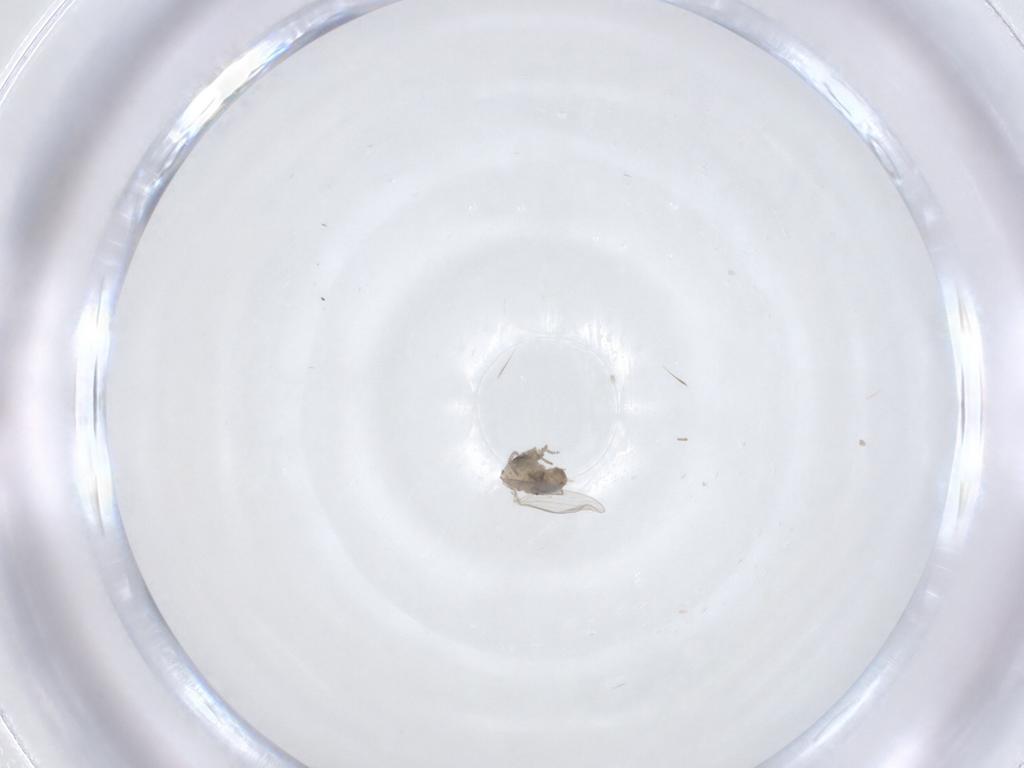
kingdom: Animalia
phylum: Arthropoda
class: Insecta
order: Diptera
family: Psychodidae
